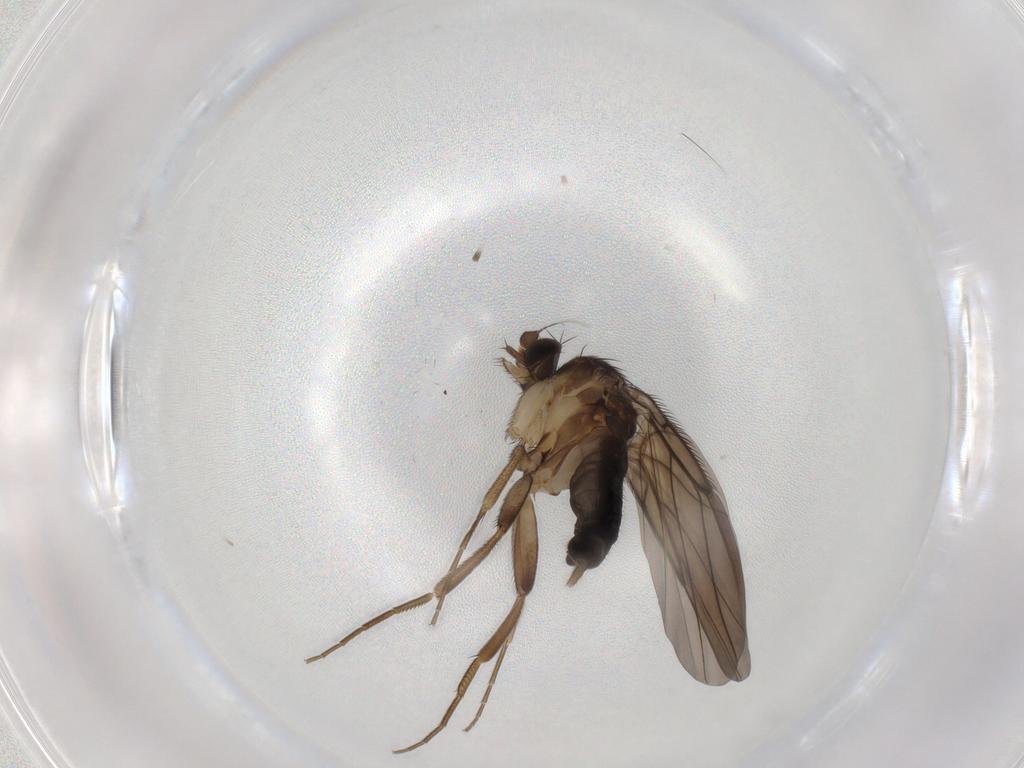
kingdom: Animalia
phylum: Arthropoda
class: Insecta
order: Diptera
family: Phoridae
